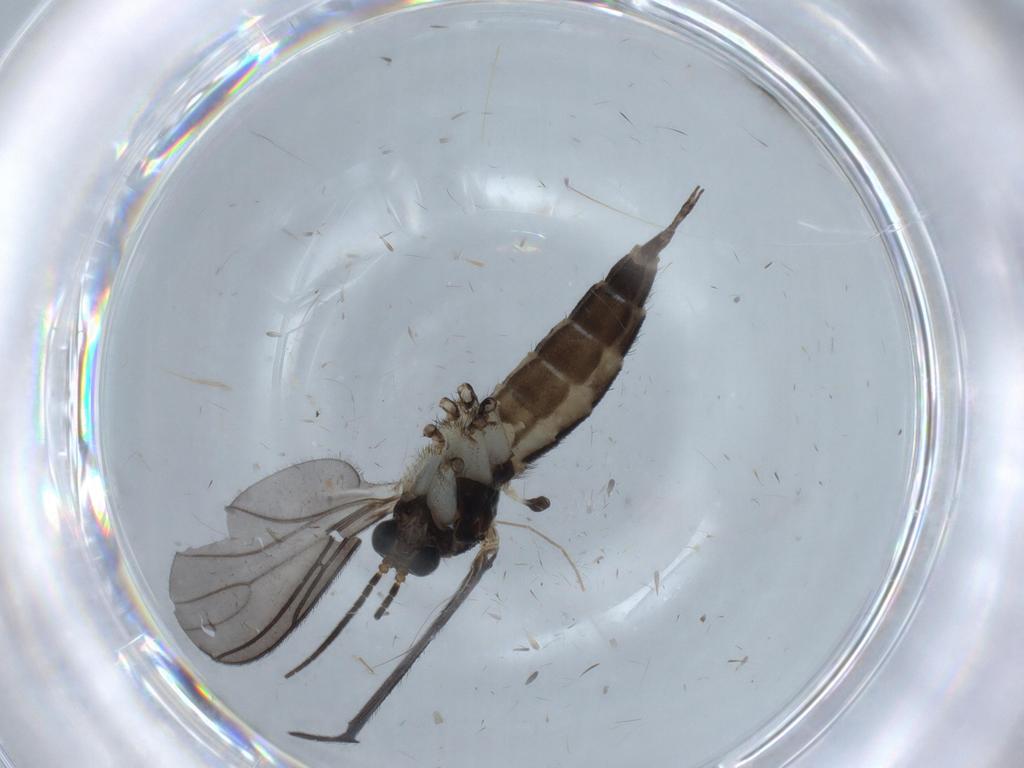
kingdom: Animalia
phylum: Arthropoda
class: Insecta
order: Diptera
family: Sciaridae
